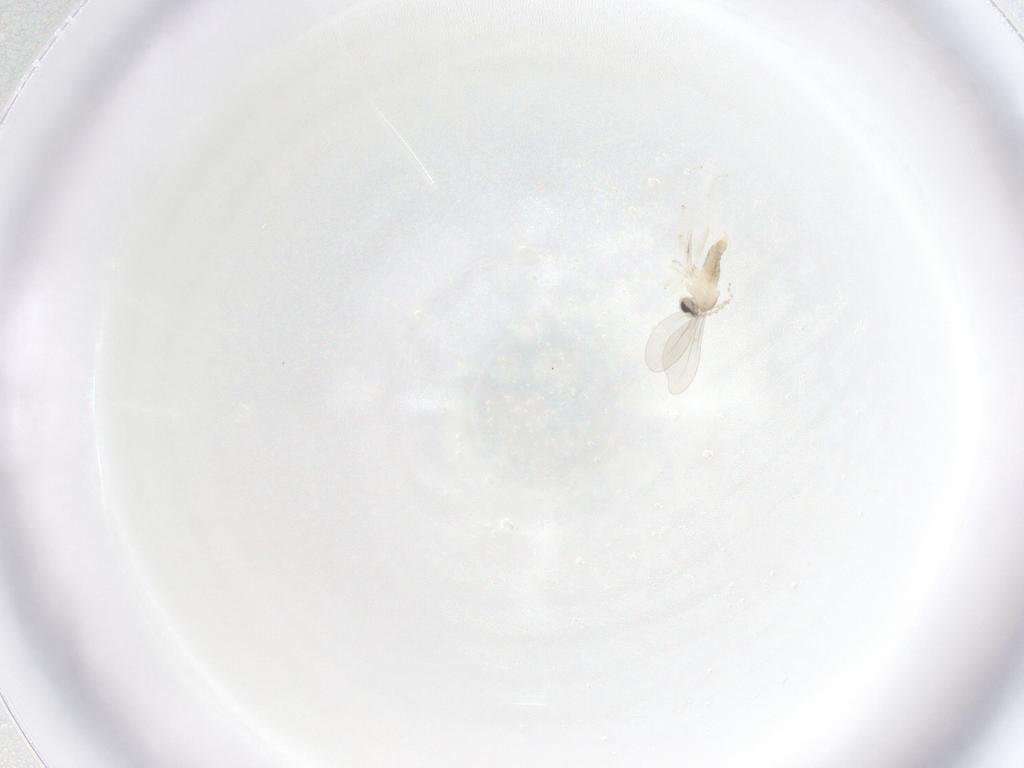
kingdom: Animalia
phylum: Arthropoda
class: Insecta
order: Diptera
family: Cecidomyiidae
